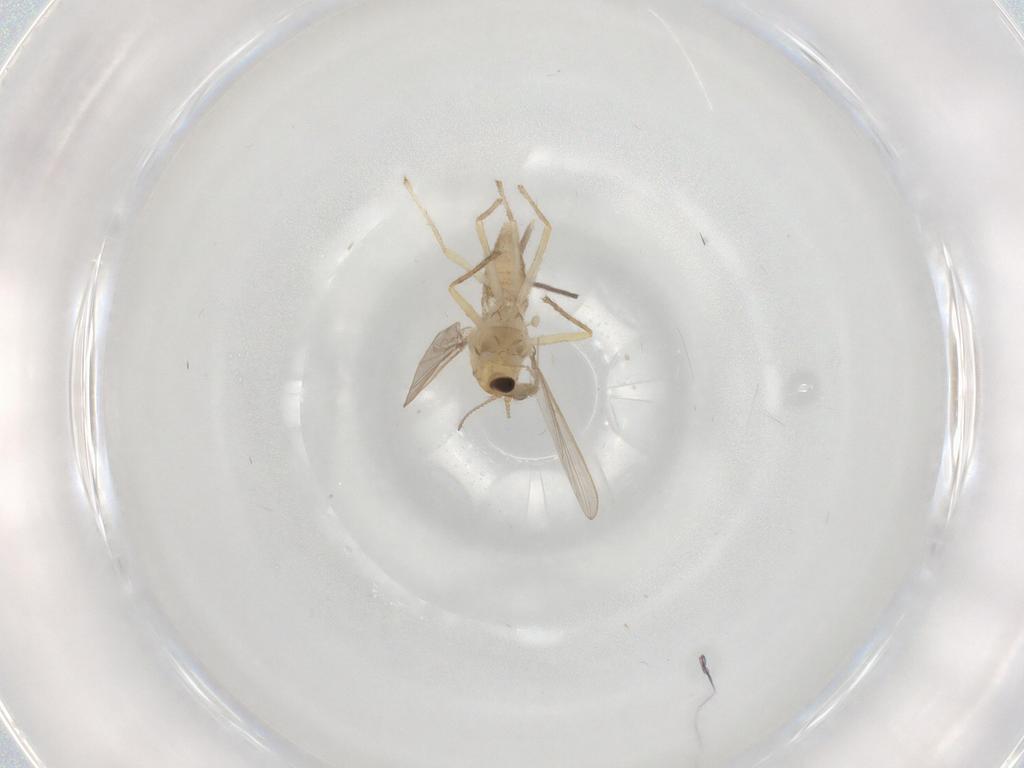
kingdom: Animalia
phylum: Arthropoda
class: Insecta
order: Diptera
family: Chironomidae
